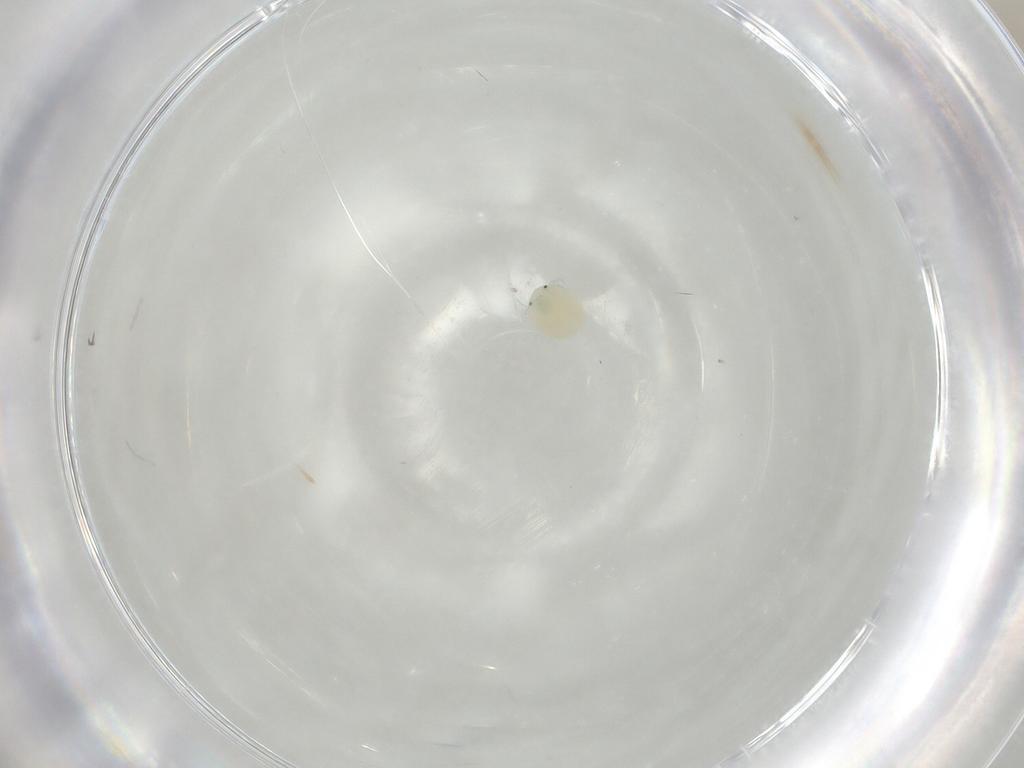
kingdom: Animalia
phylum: Arthropoda
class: Arachnida
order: Trombidiformes
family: Arrenuridae
